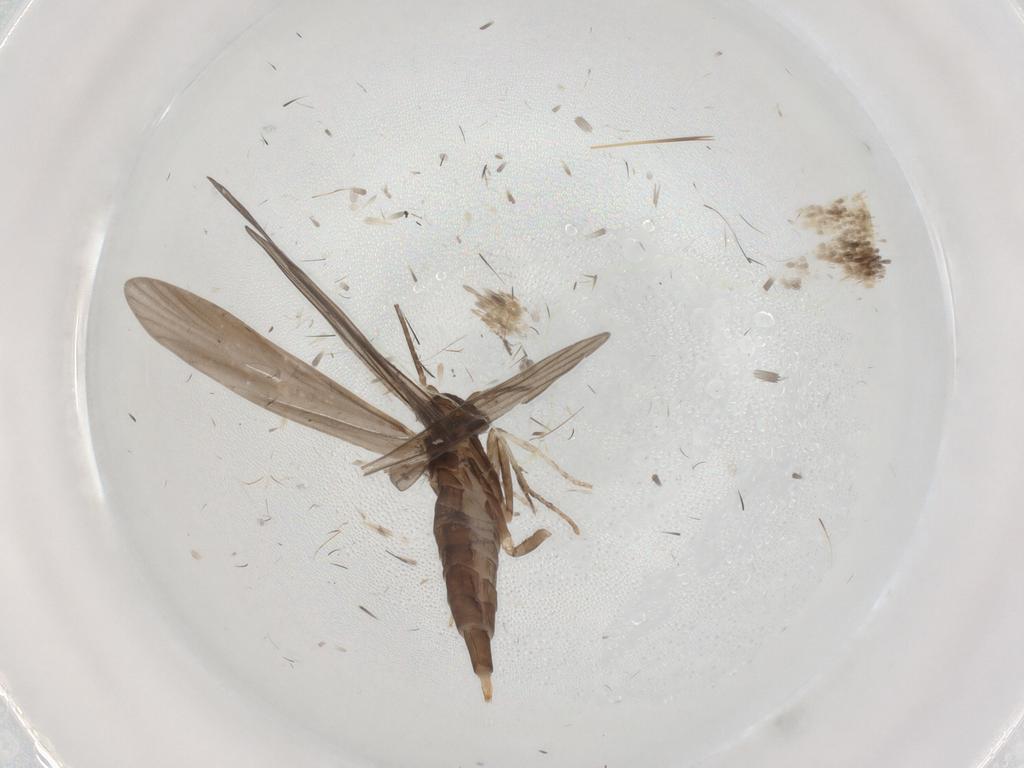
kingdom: Animalia
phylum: Arthropoda
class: Insecta
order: Trichoptera
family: Xiphocentronidae
